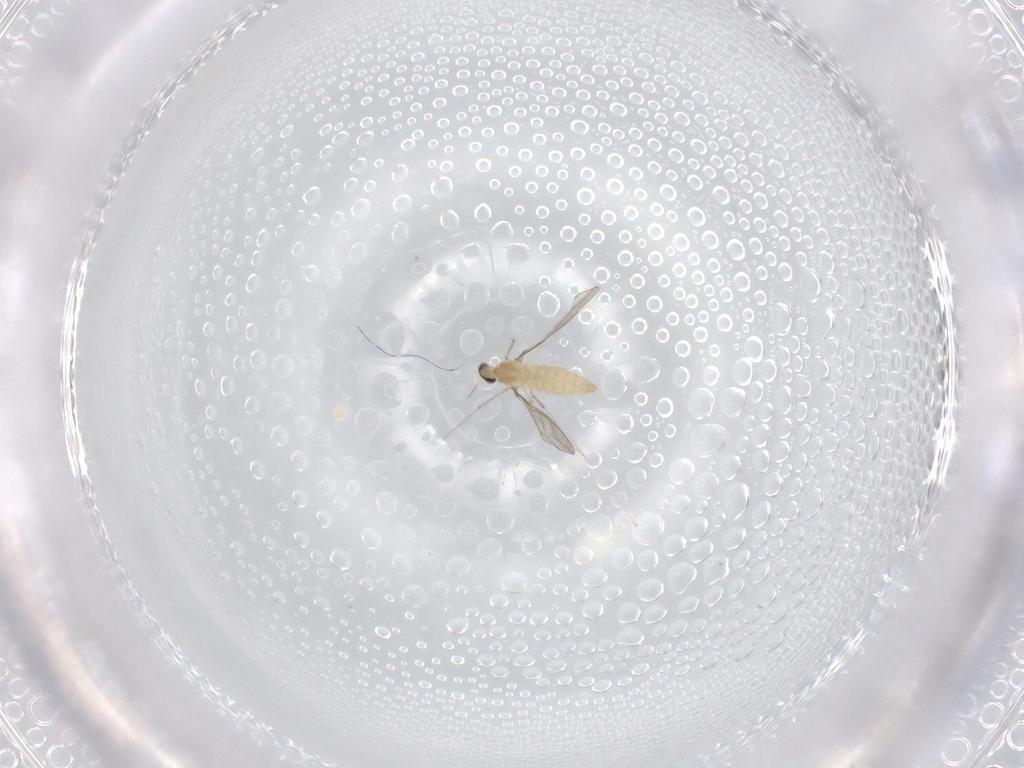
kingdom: Animalia
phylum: Arthropoda
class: Insecta
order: Diptera
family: Cecidomyiidae
